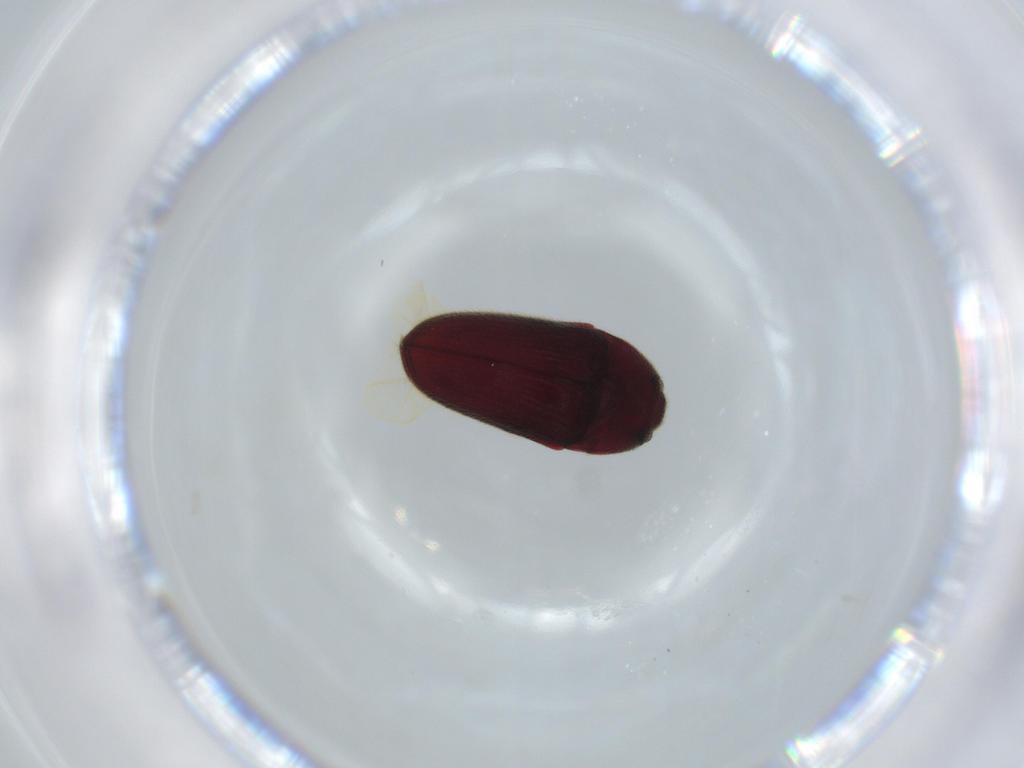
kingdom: Animalia
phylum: Arthropoda
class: Insecta
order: Coleoptera
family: Throscidae
